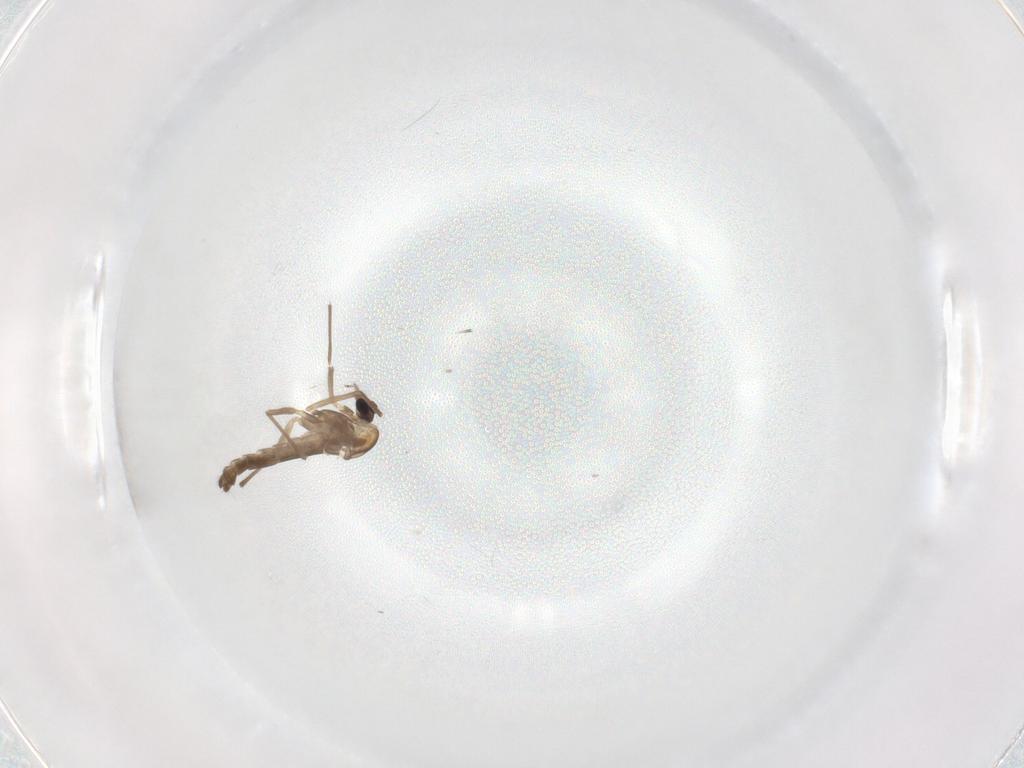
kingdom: Animalia
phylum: Arthropoda
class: Insecta
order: Diptera
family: Chironomidae
